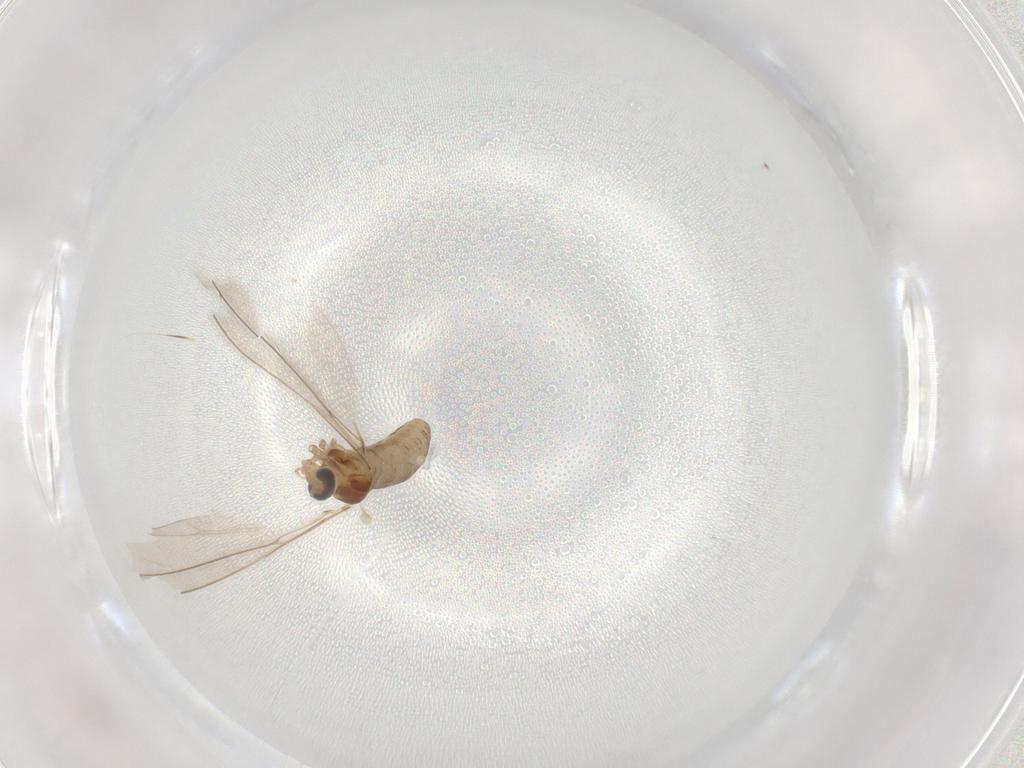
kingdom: Animalia
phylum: Arthropoda
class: Insecta
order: Diptera
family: Cecidomyiidae
